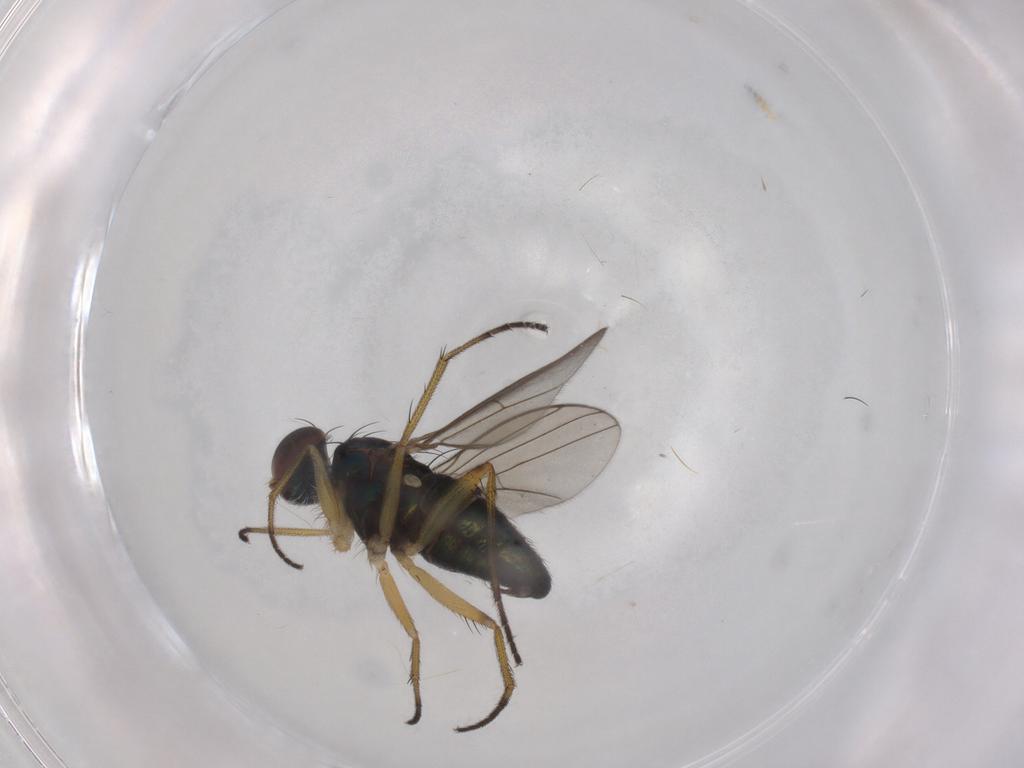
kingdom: Animalia
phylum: Arthropoda
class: Insecta
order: Diptera
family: Dolichopodidae
